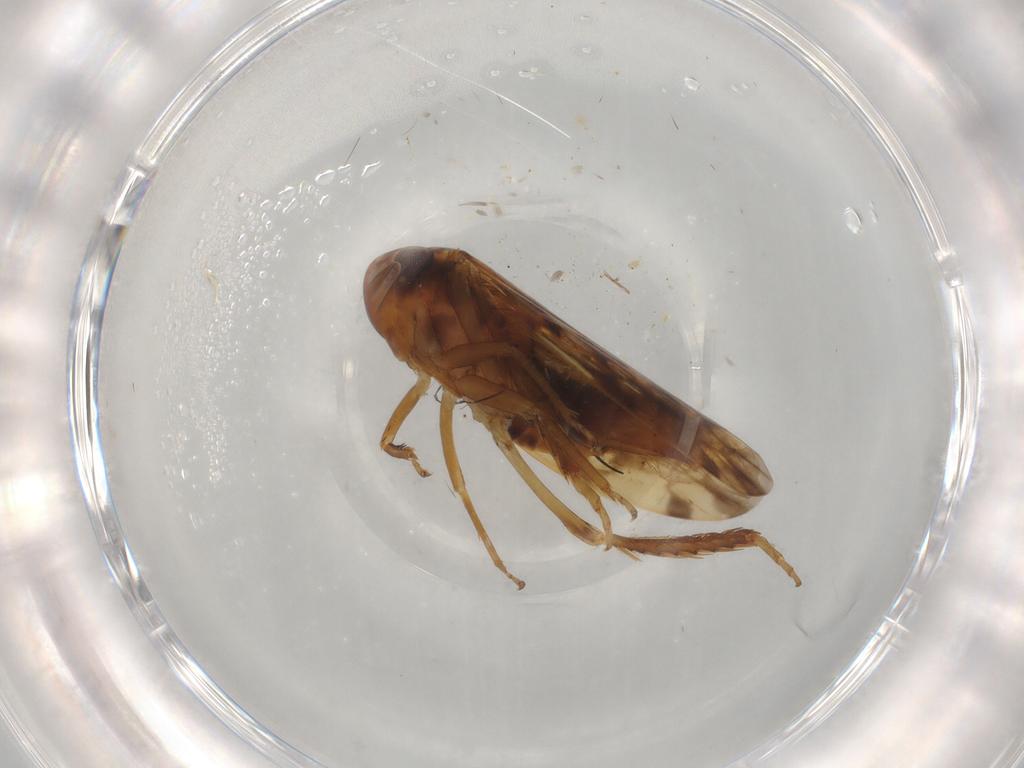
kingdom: Animalia
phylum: Arthropoda
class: Insecta
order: Hemiptera
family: Cicadellidae
